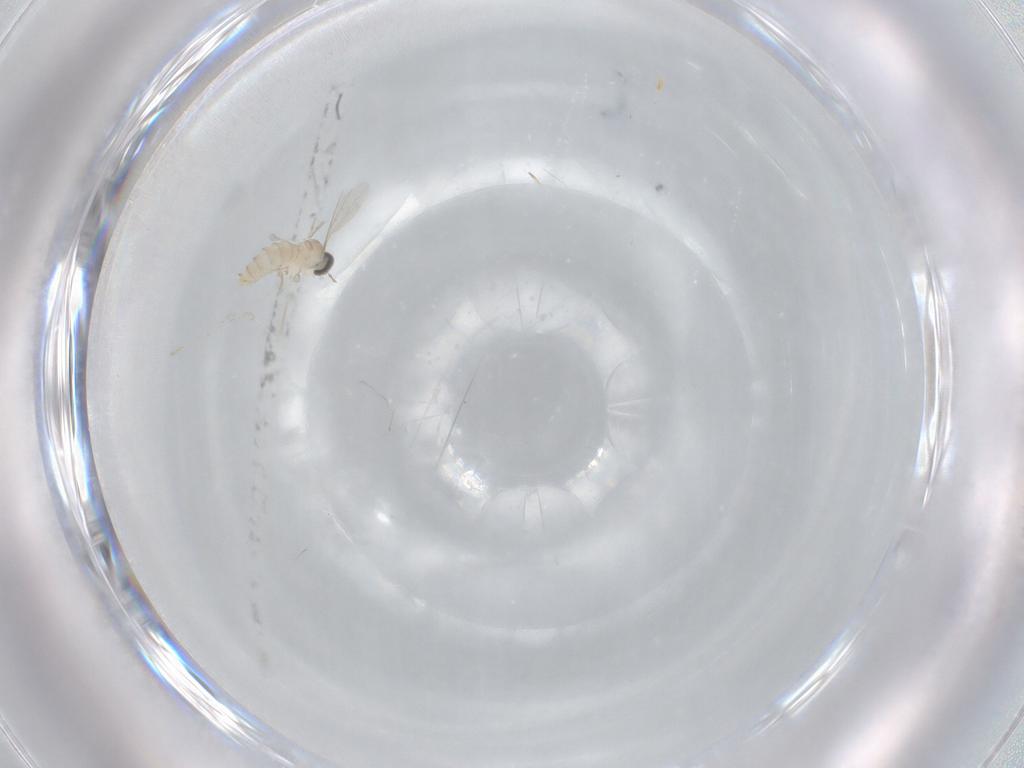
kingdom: Animalia
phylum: Arthropoda
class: Insecta
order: Diptera
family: Cecidomyiidae
